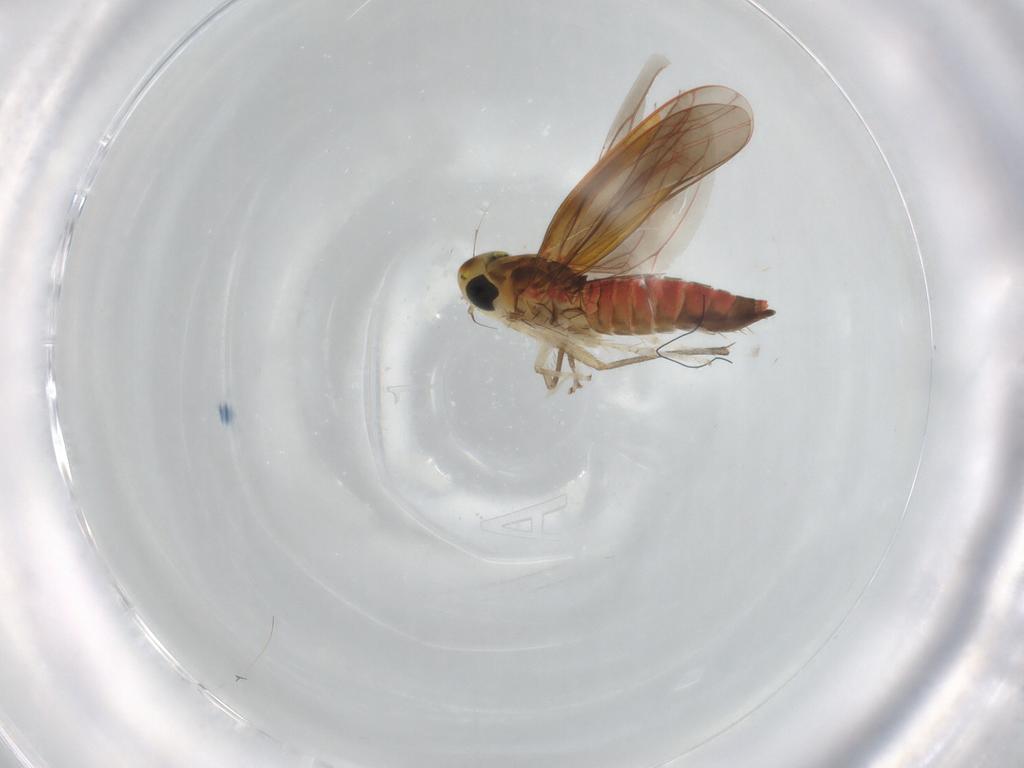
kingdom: Animalia
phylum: Arthropoda
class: Insecta
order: Hemiptera
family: Cicadellidae
